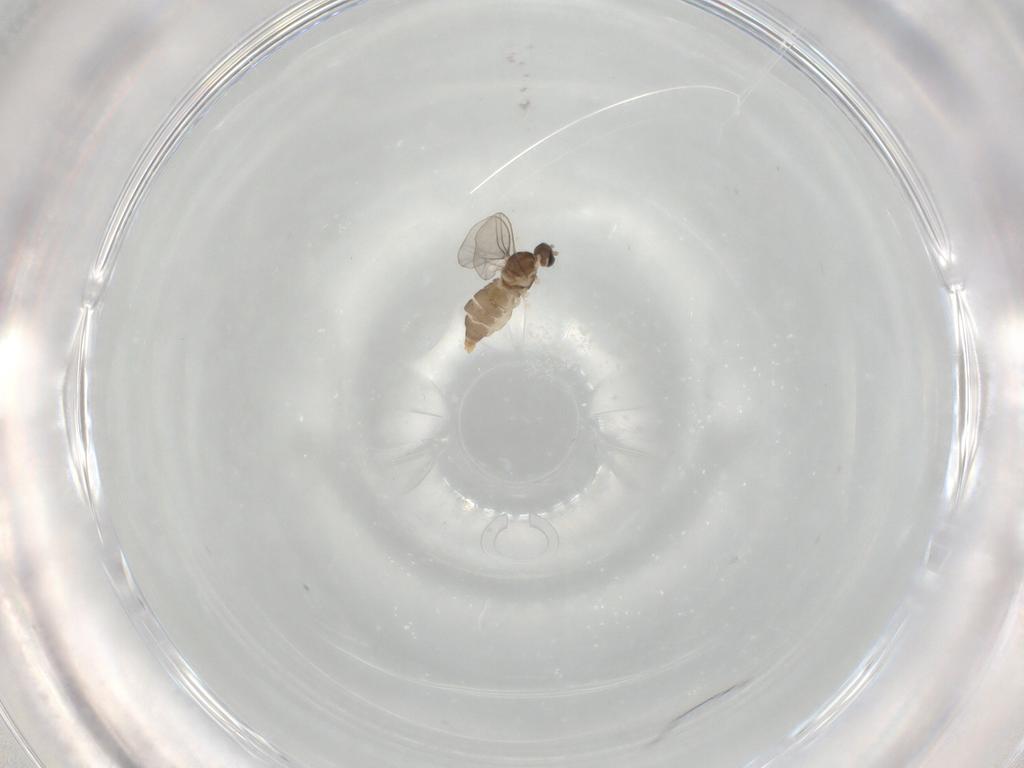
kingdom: Animalia
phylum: Arthropoda
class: Insecta
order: Diptera
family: Cecidomyiidae
